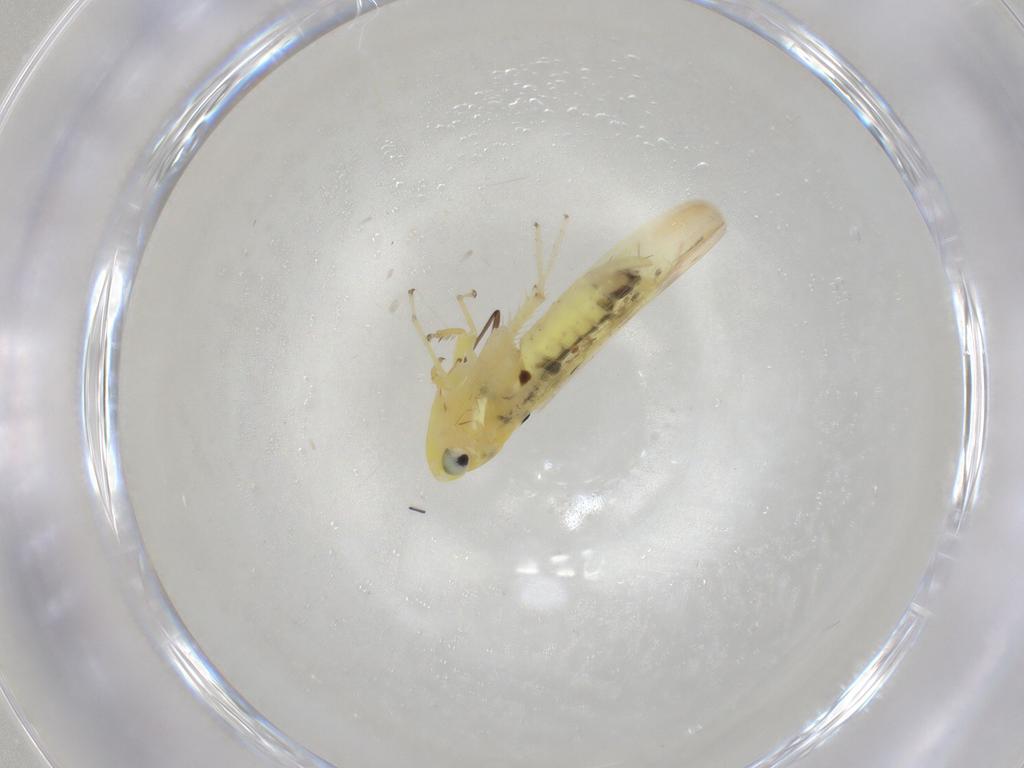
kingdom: Animalia
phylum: Arthropoda
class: Insecta
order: Hemiptera
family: Cicadellidae
